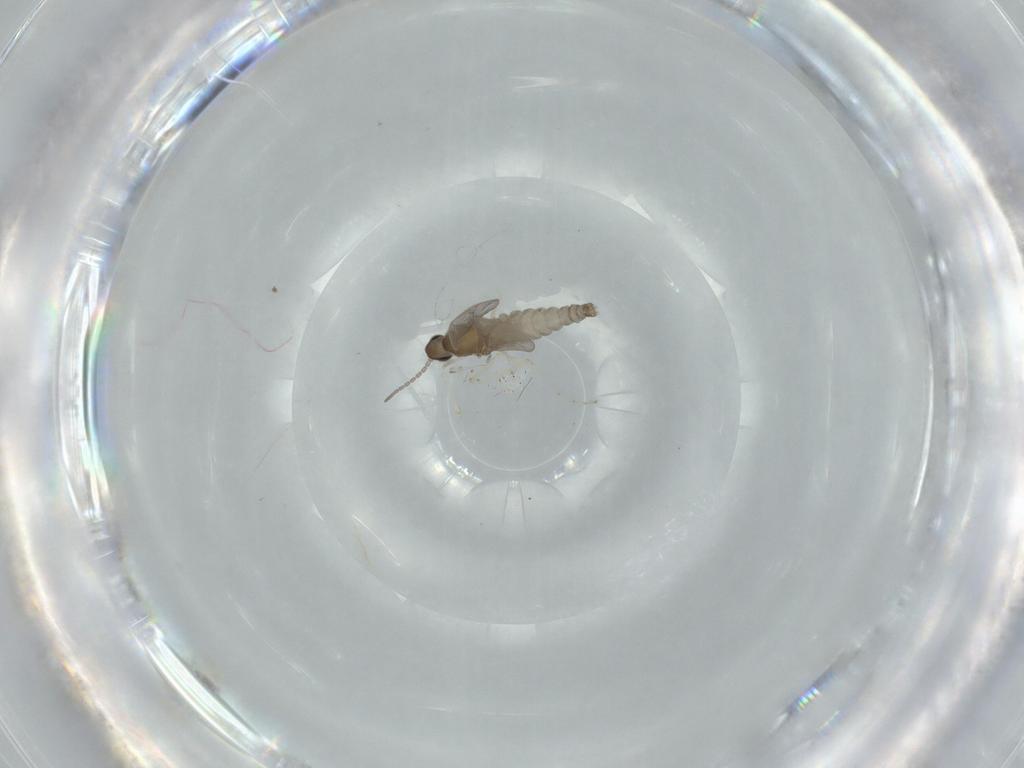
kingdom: Animalia
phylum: Arthropoda
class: Insecta
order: Diptera
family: Cecidomyiidae
